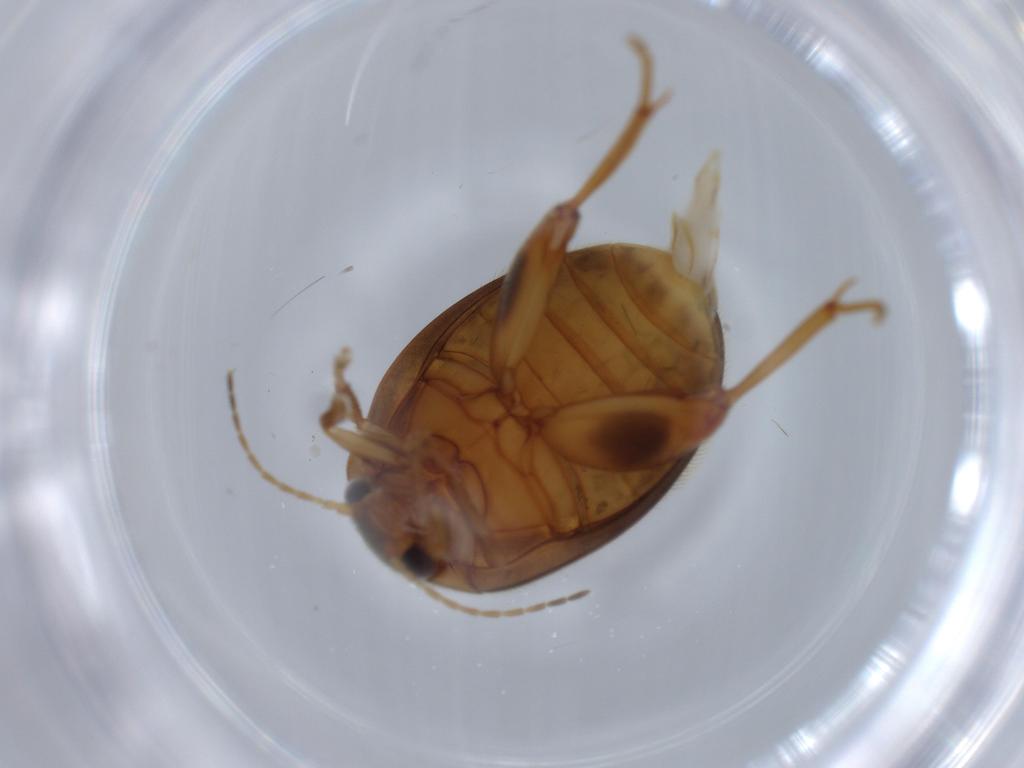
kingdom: Animalia
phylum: Arthropoda
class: Insecta
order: Coleoptera
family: Scirtidae
